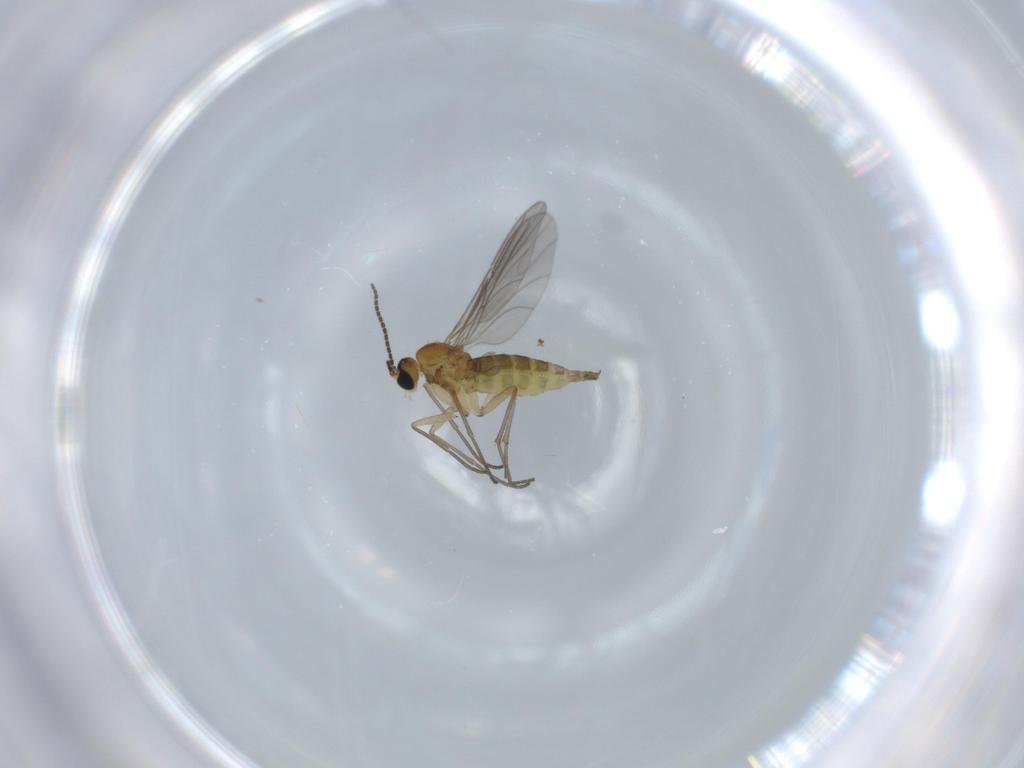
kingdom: Animalia
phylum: Arthropoda
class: Insecta
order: Diptera
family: Sciaridae
